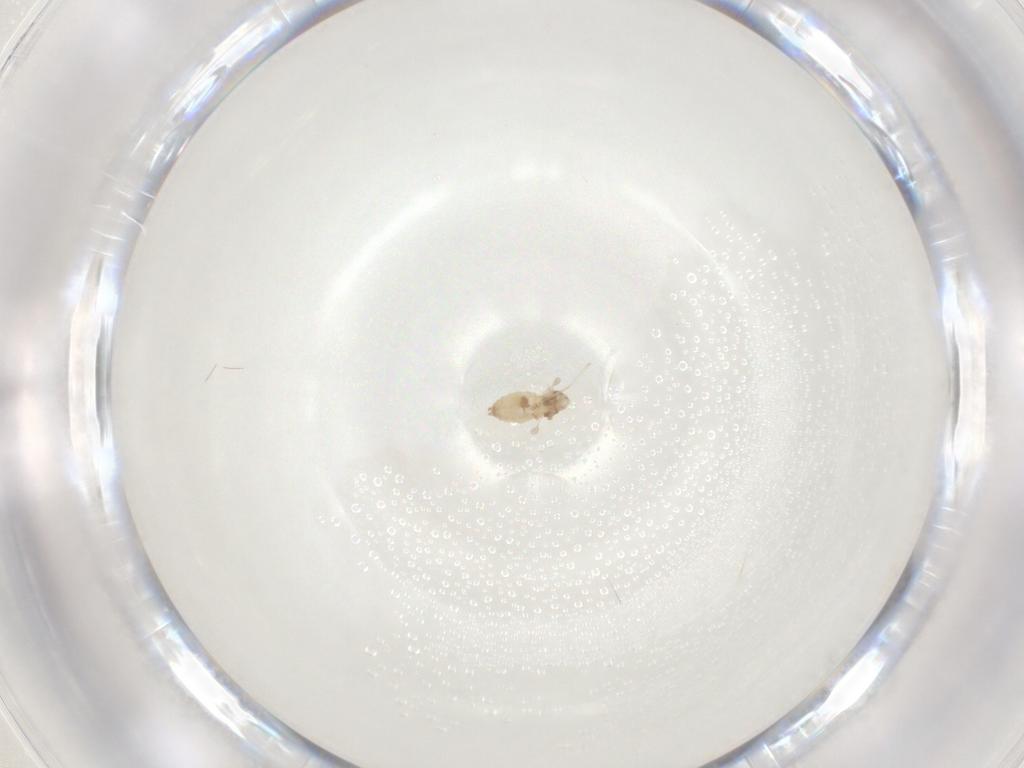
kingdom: Animalia
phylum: Arthropoda
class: Insecta
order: Diptera
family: Cecidomyiidae
